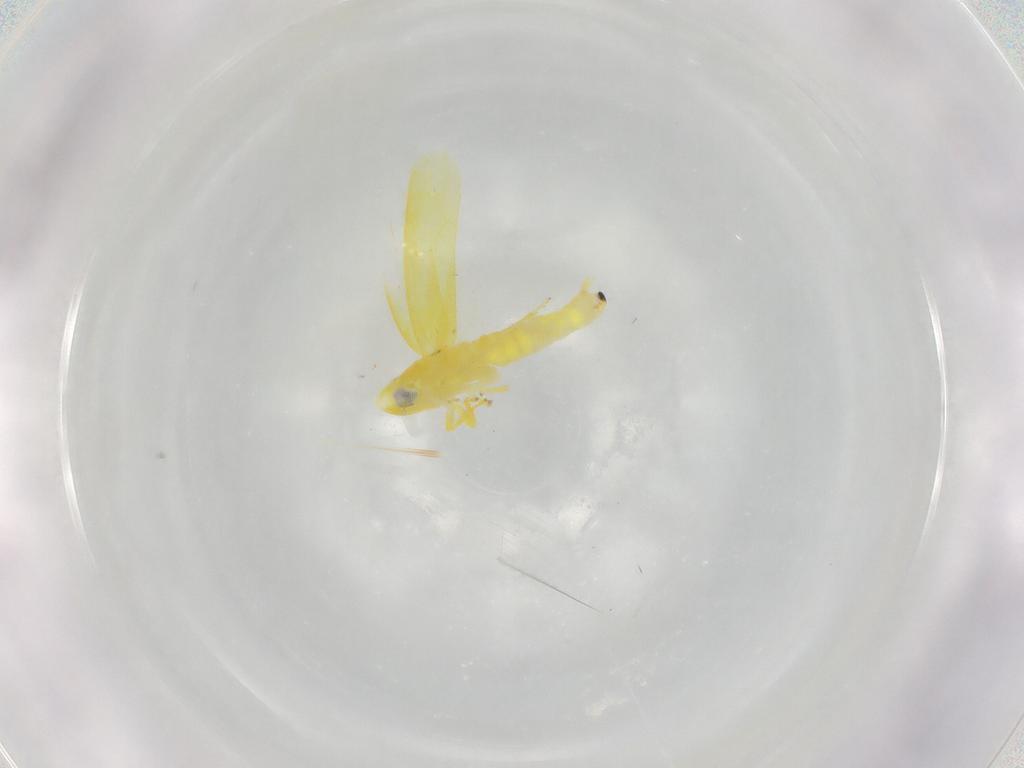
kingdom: Animalia
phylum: Arthropoda
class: Insecta
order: Hemiptera
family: Cicadellidae
